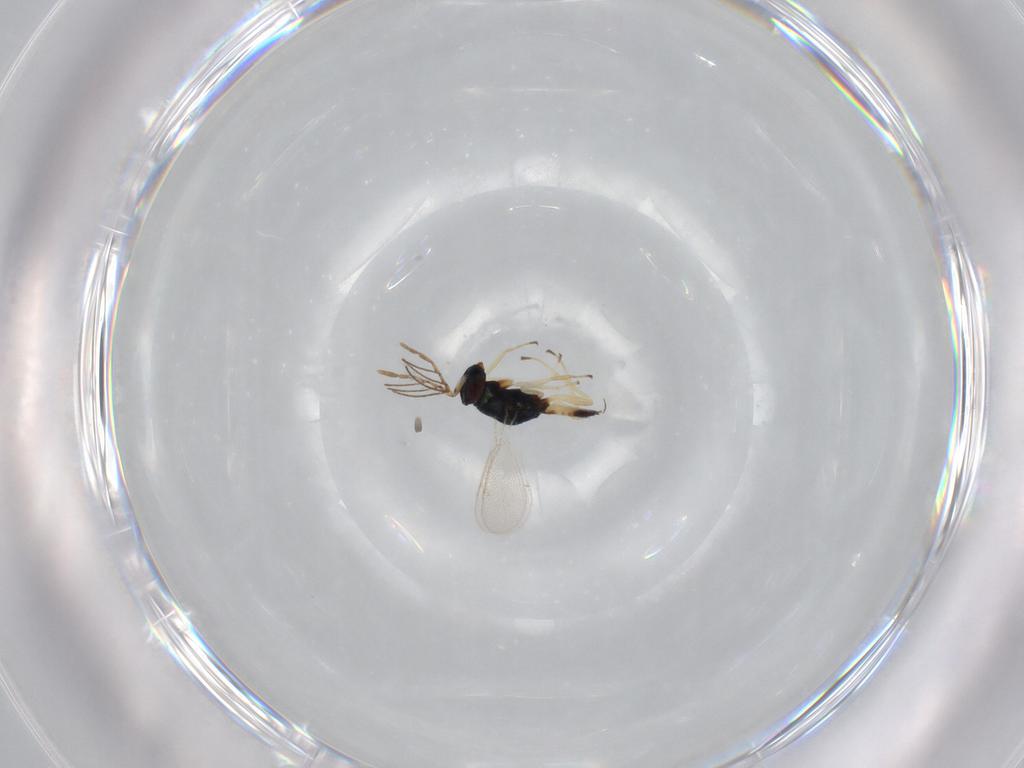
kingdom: Animalia
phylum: Arthropoda
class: Insecta
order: Hymenoptera
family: Eulophidae
